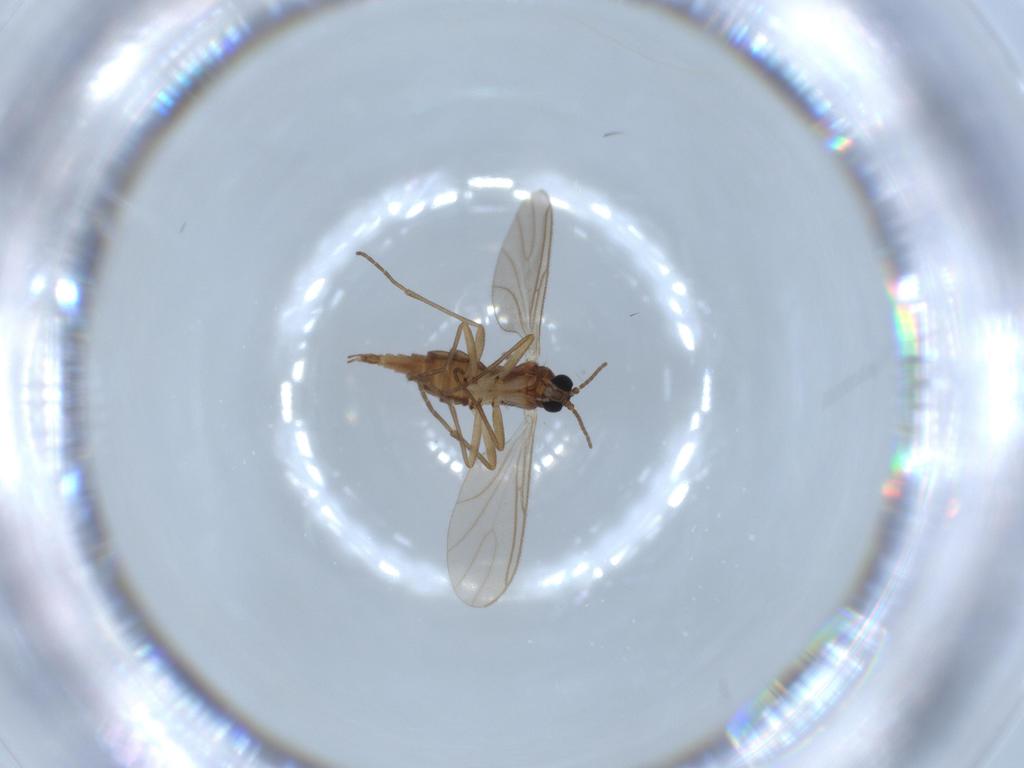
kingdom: Animalia
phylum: Arthropoda
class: Insecta
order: Diptera
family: Sciaridae
